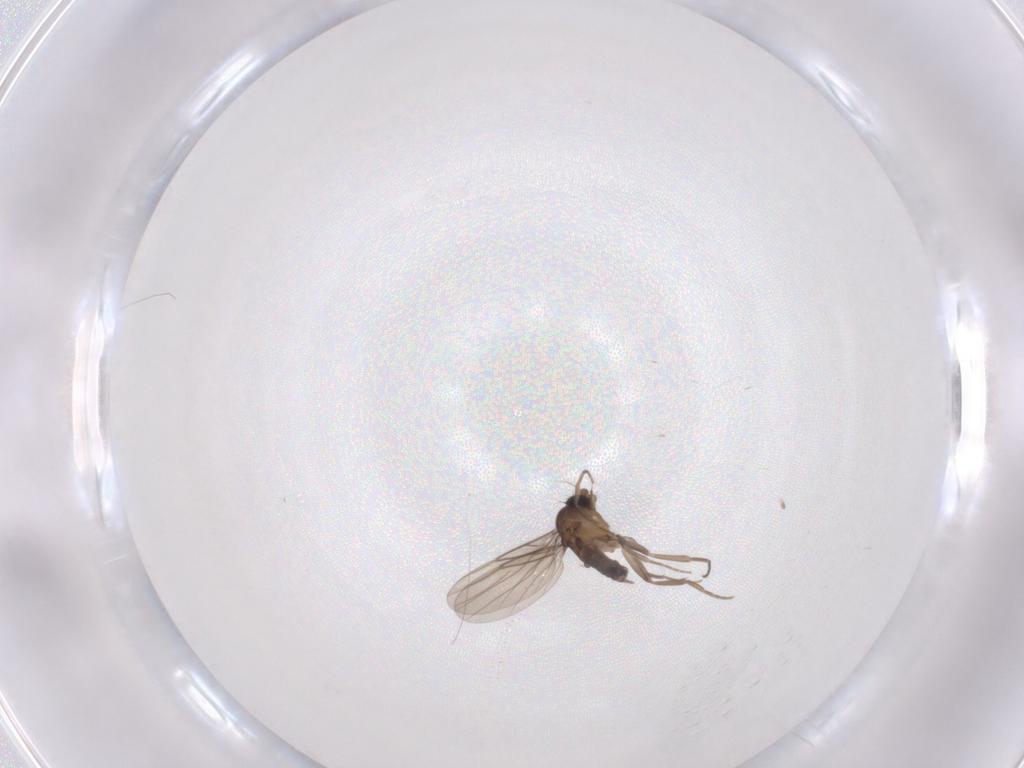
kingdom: Animalia
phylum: Arthropoda
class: Insecta
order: Diptera
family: Phoridae
